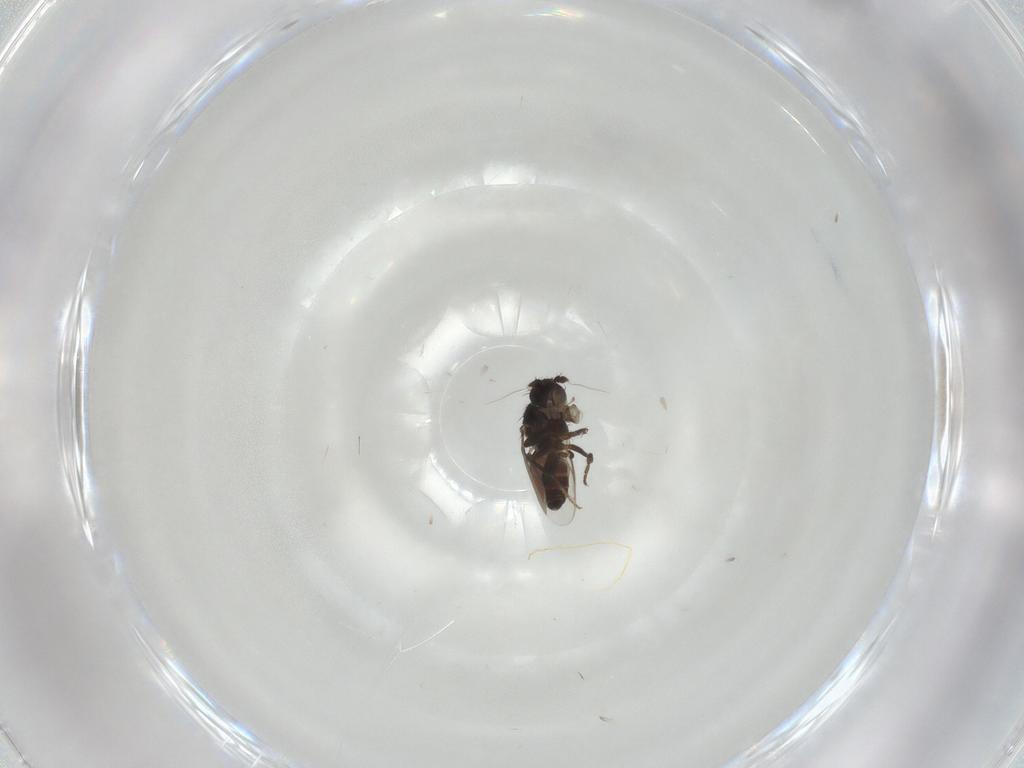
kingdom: Animalia
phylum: Arthropoda
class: Insecta
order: Diptera
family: Ceratopogonidae
